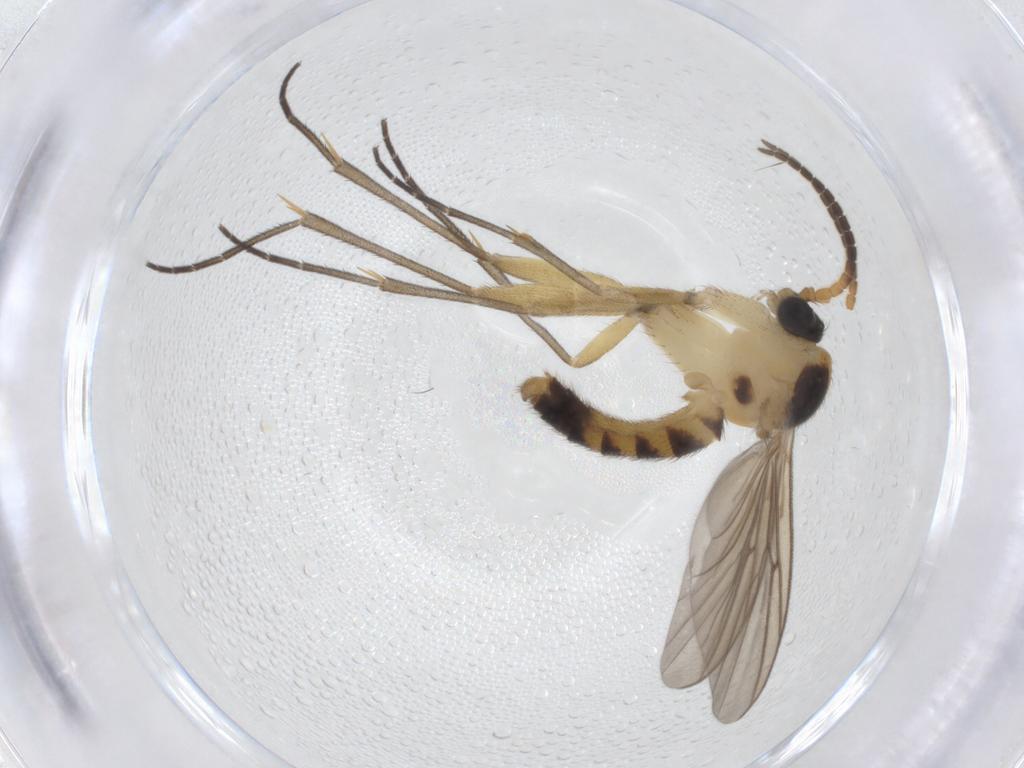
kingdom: Animalia
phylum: Arthropoda
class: Insecta
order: Diptera
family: Mycetophilidae
